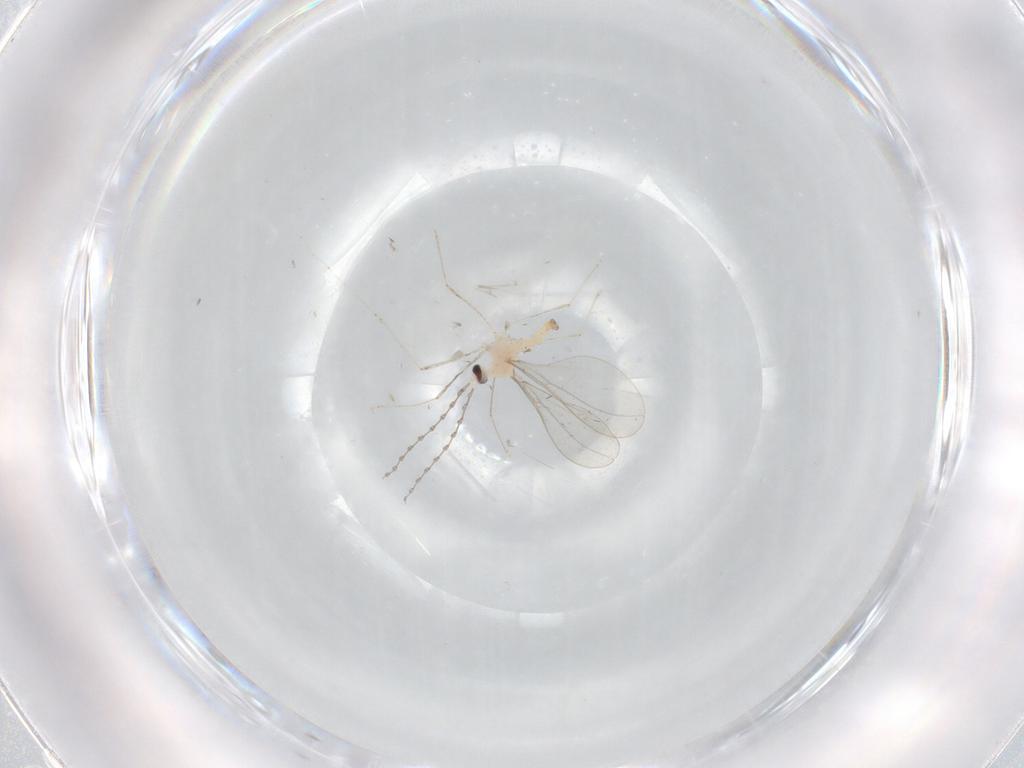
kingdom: Animalia
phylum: Arthropoda
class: Insecta
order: Diptera
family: Cecidomyiidae
